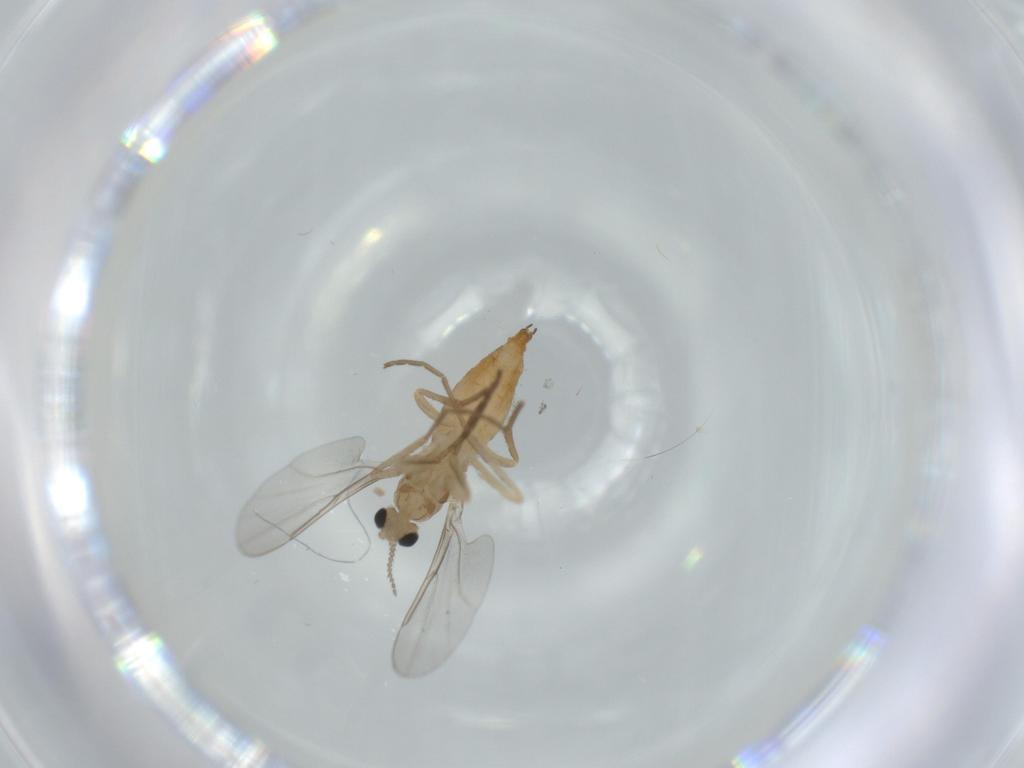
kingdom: Animalia
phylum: Arthropoda
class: Insecta
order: Diptera
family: Cecidomyiidae
